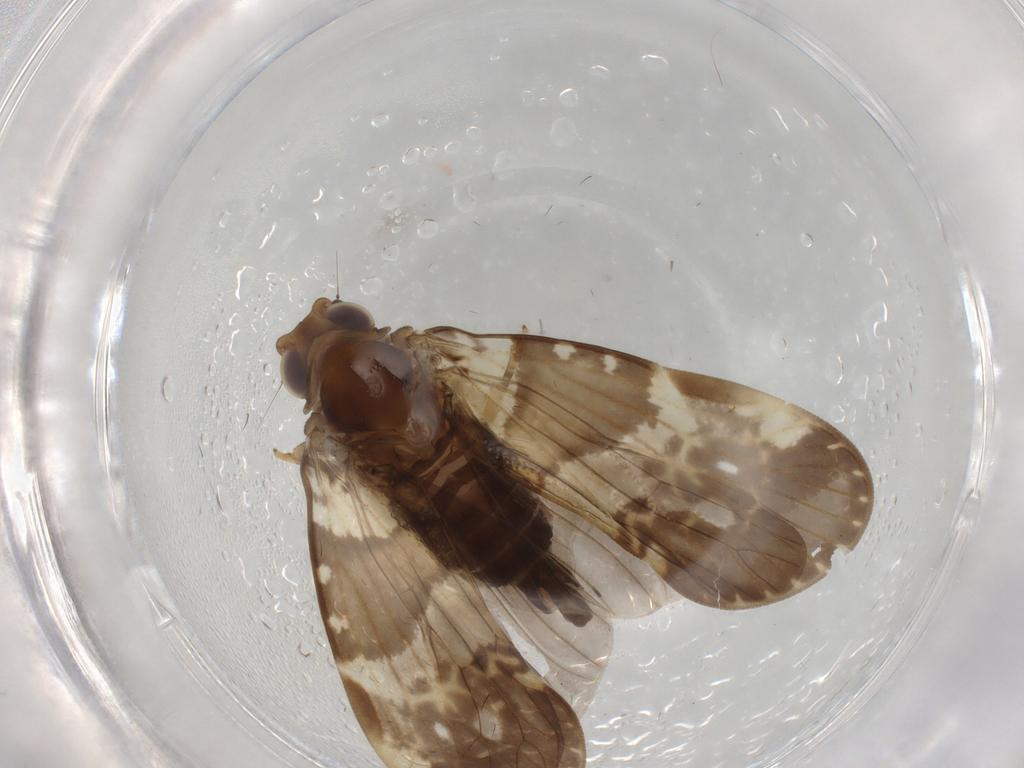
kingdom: Animalia
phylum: Arthropoda
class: Insecta
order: Hemiptera
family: Cixiidae
